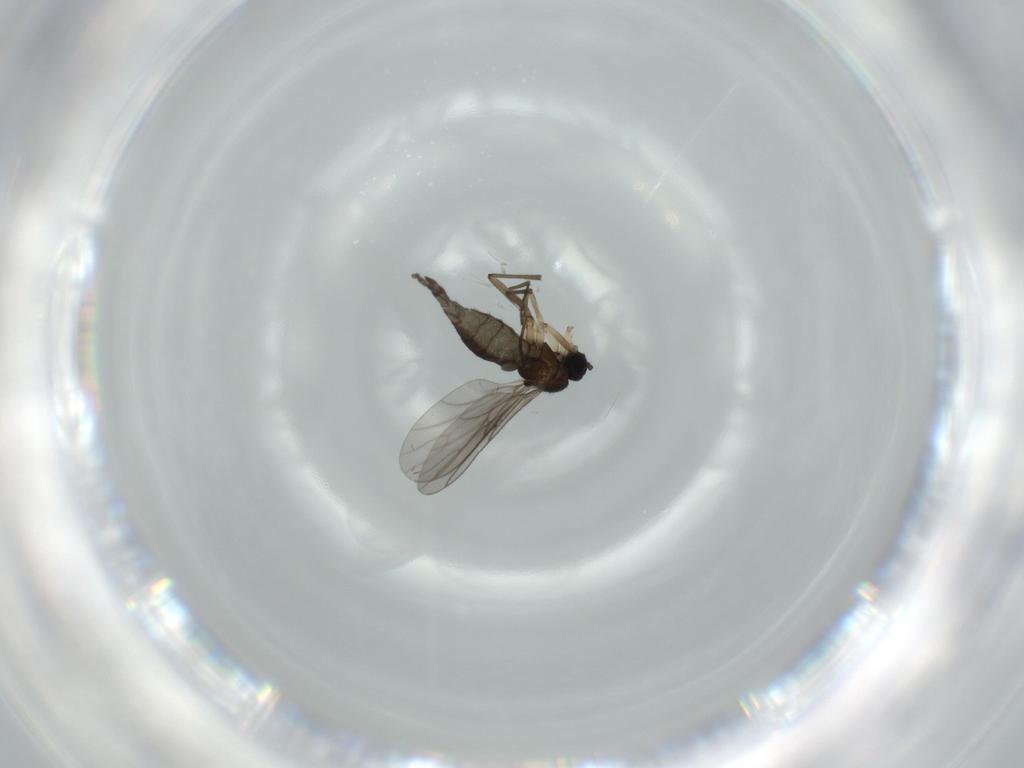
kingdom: Animalia
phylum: Arthropoda
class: Insecta
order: Diptera
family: Sciaridae
